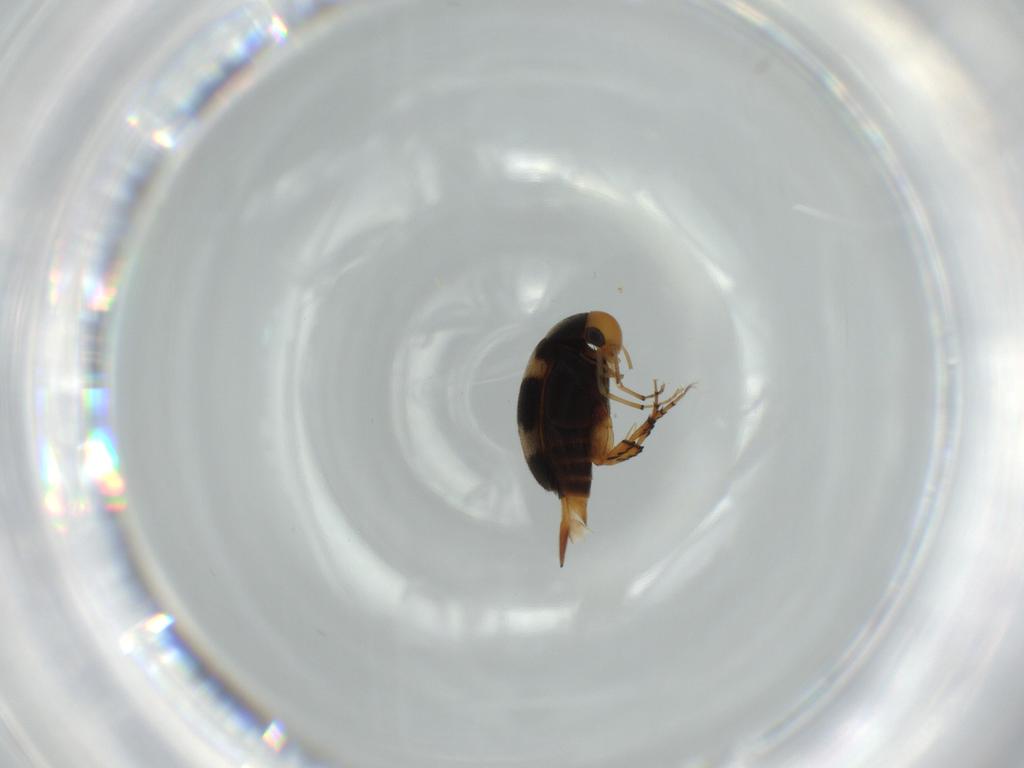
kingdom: Animalia
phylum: Arthropoda
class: Insecta
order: Coleoptera
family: Mordellidae
